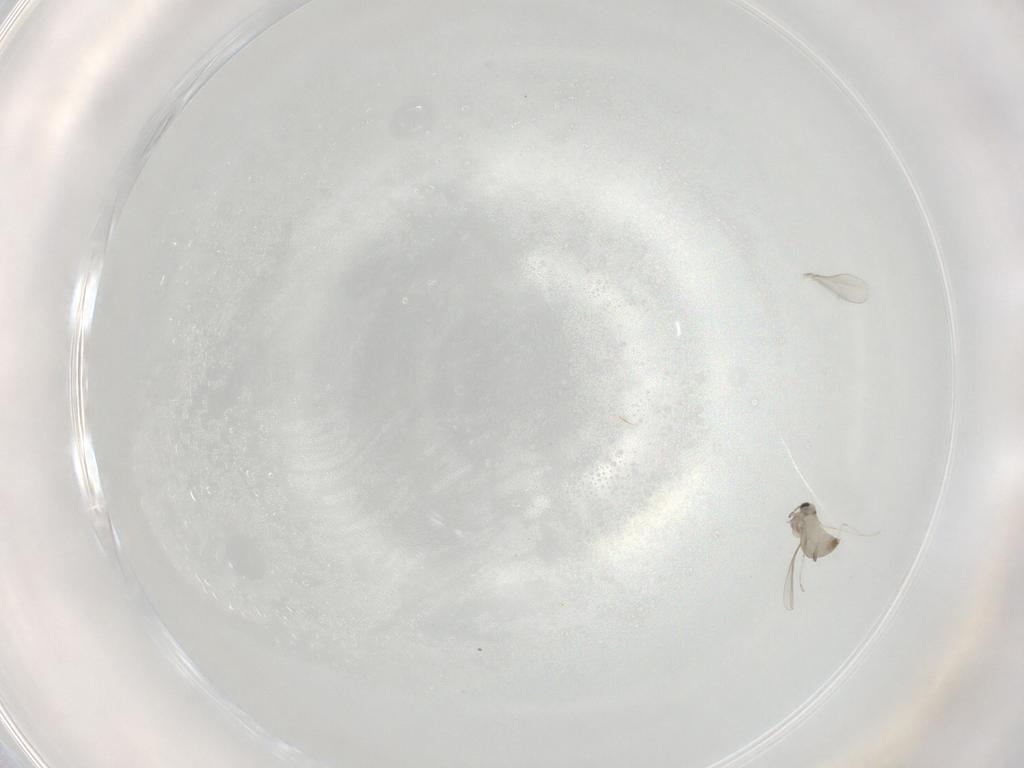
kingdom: Animalia
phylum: Arthropoda
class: Insecta
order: Diptera
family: Cecidomyiidae
